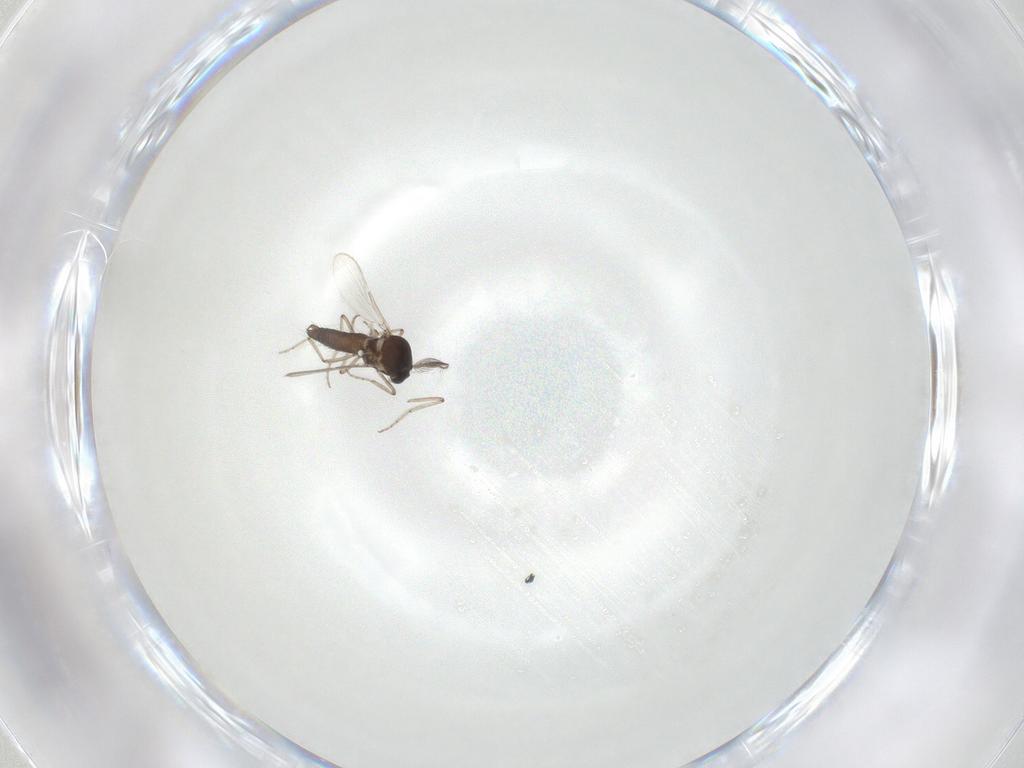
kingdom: Animalia
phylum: Arthropoda
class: Insecta
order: Diptera
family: Ceratopogonidae
